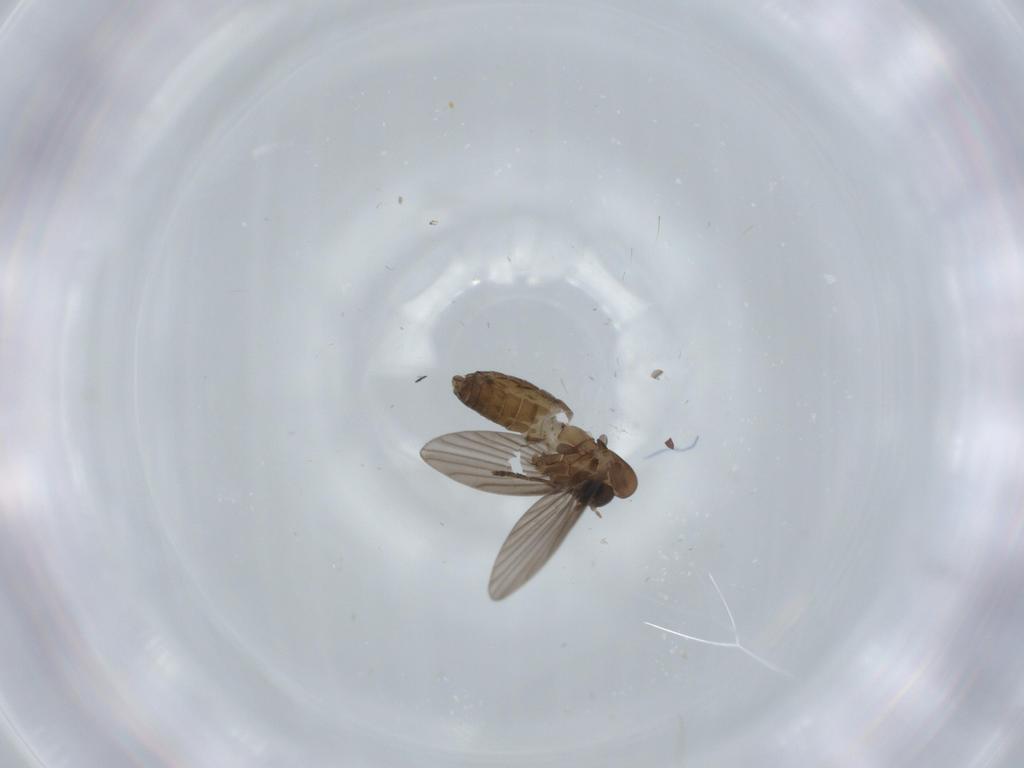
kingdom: Animalia
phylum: Arthropoda
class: Insecta
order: Diptera
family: Psychodidae
